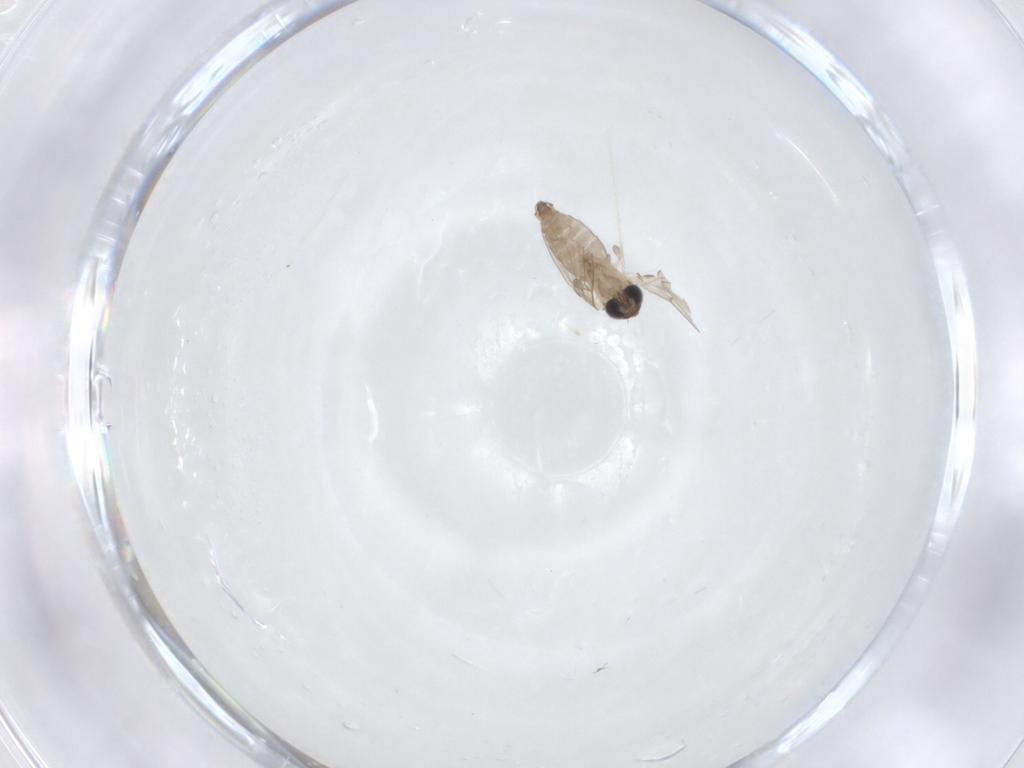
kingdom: Animalia
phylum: Arthropoda
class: Insecta
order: Diptera
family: Psychodidae
